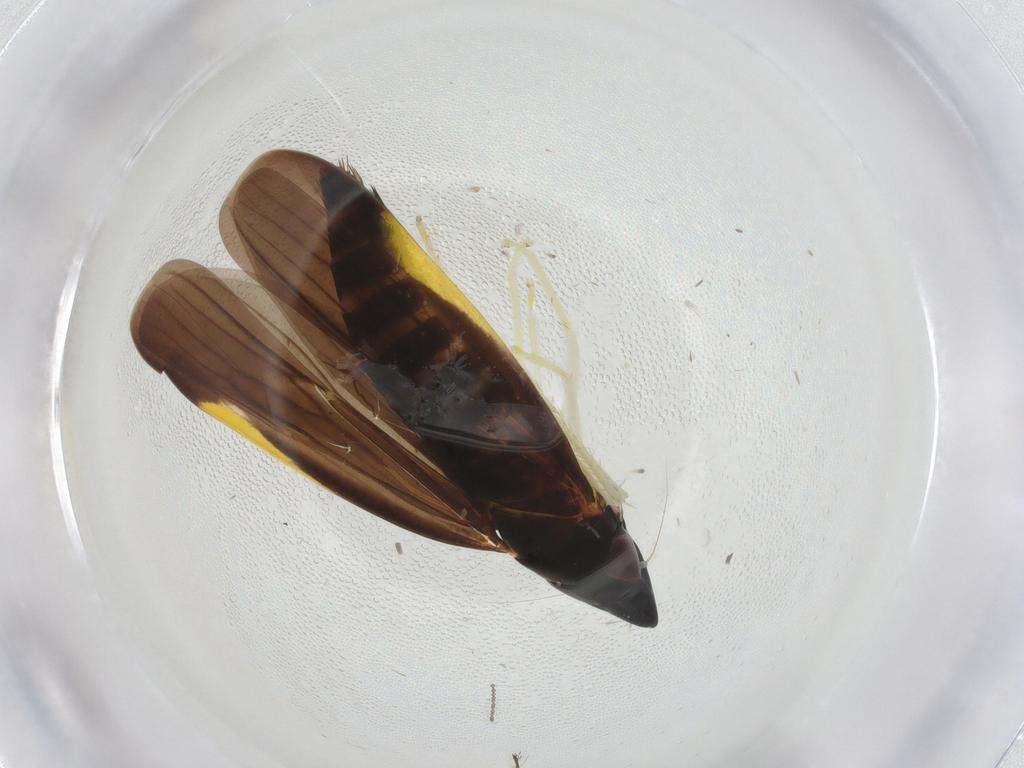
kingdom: Animalia
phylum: Arthropoda
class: Insecta
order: Hemiptera
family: Cicadellidae
